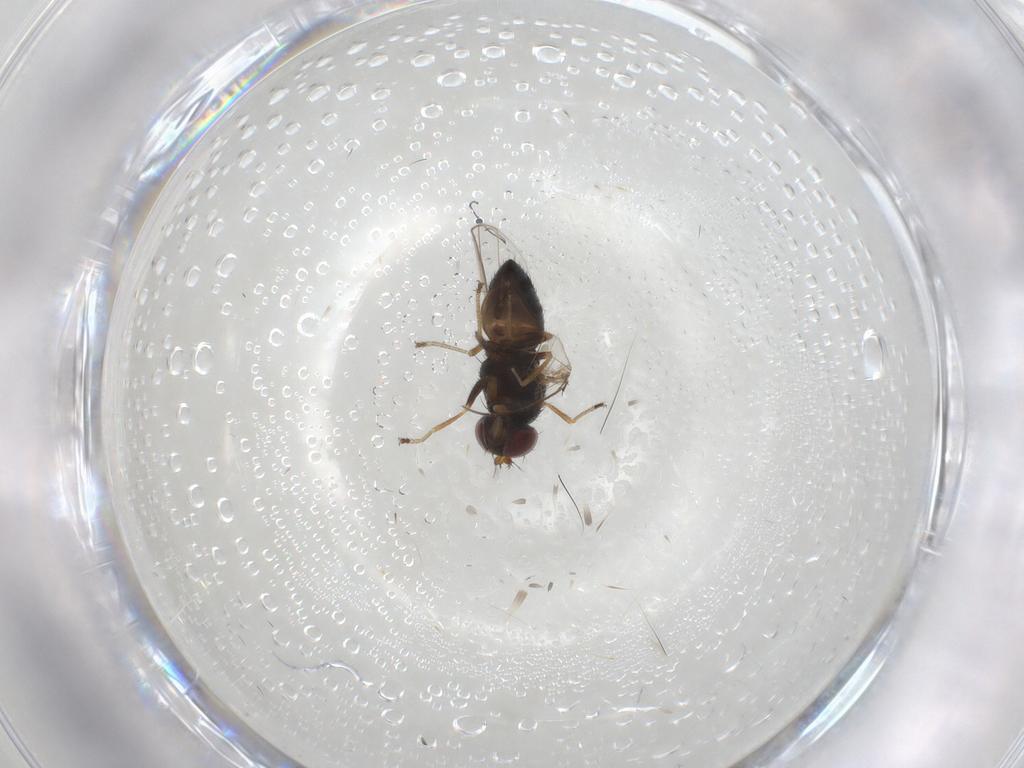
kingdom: Animalia
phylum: Arthropoda
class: Insecta
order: Diptera
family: Ephydridae
